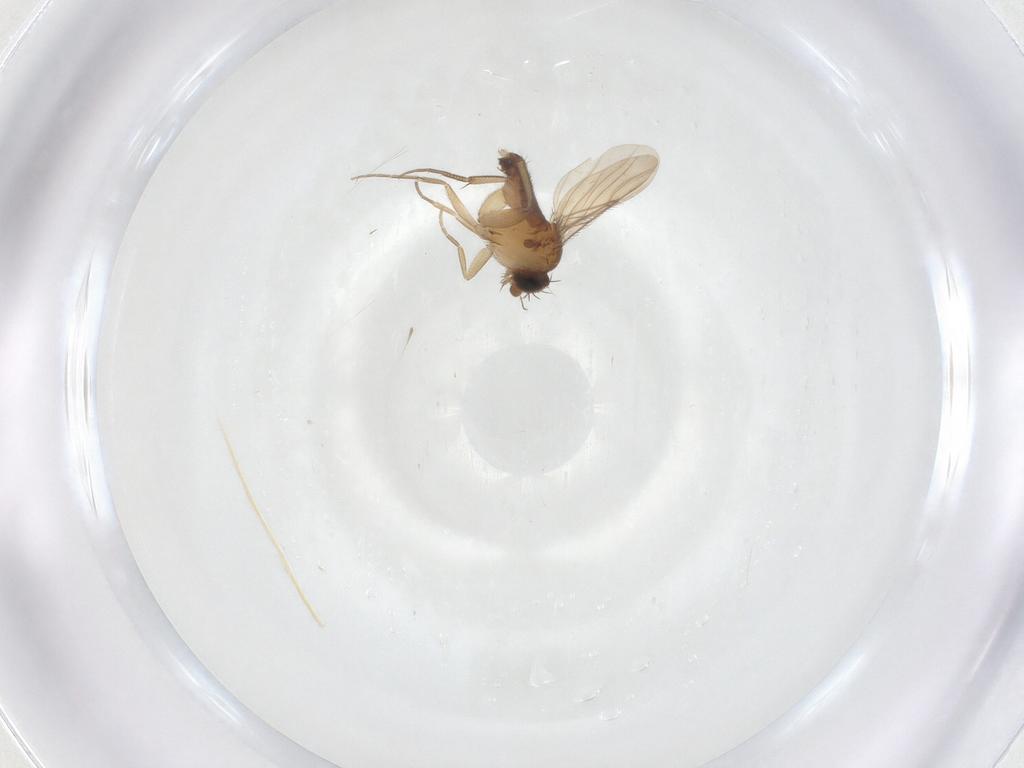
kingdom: Animalia
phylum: Arthropoda
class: Insecta
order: Diptera
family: Phoridae
